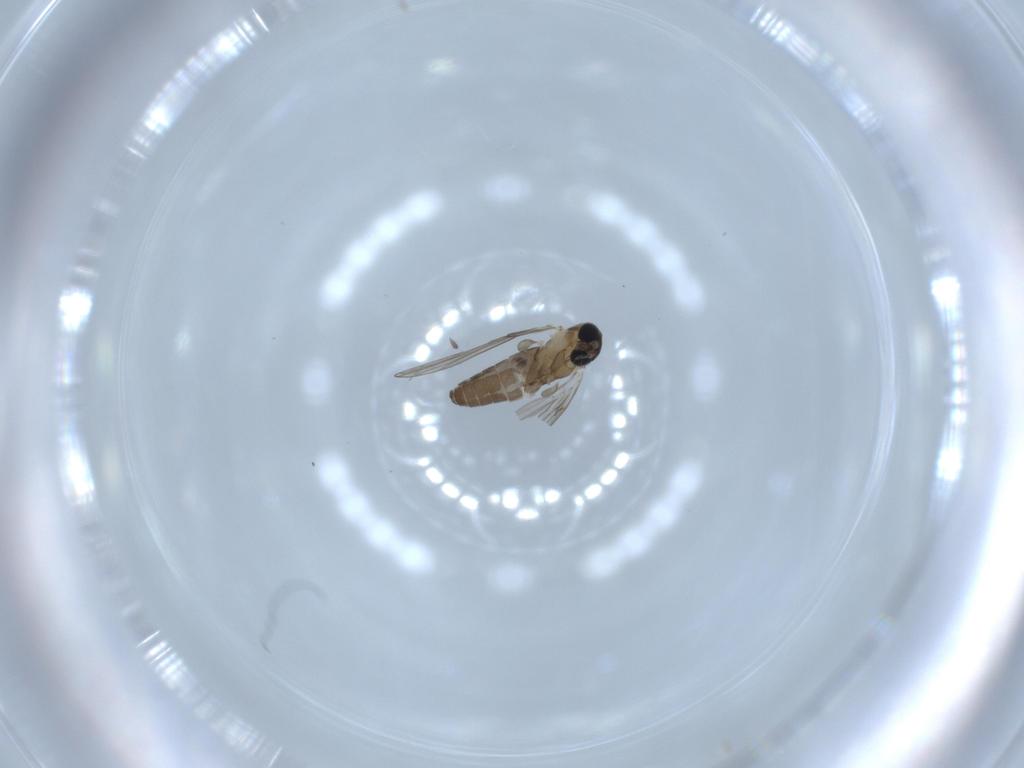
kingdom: Animalia
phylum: Arthropoda
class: Insecta
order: Diptera
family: Psychodidae
